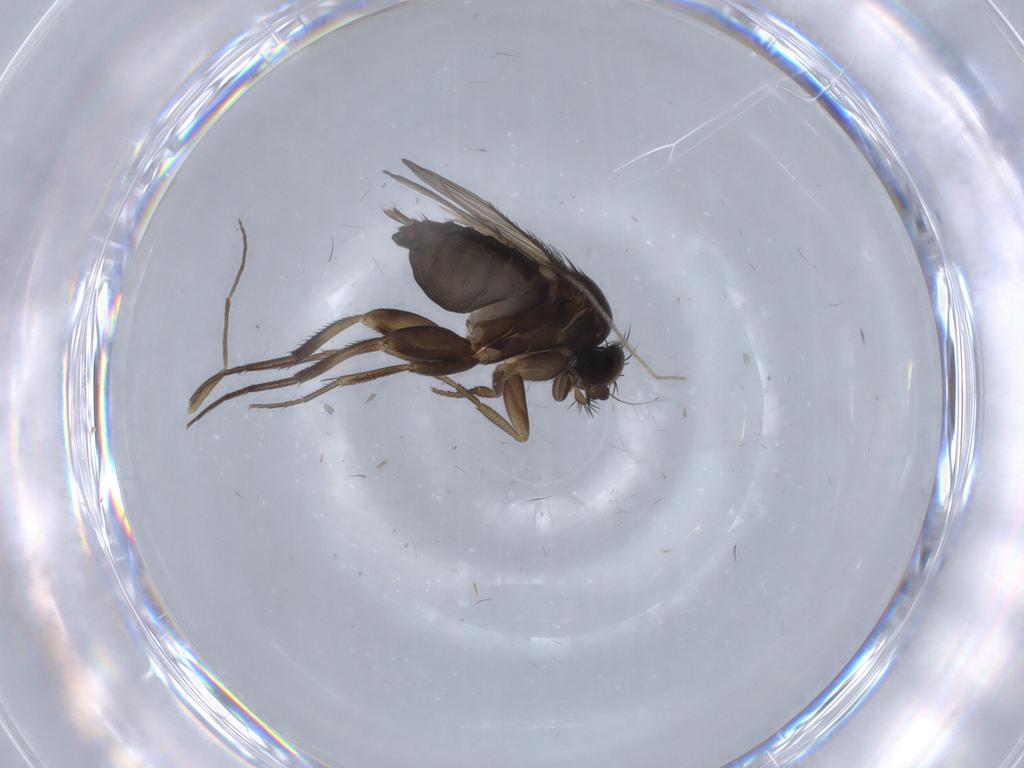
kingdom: Animalia
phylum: Arthropoda
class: Insecta
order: Diptera
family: Phoridae
